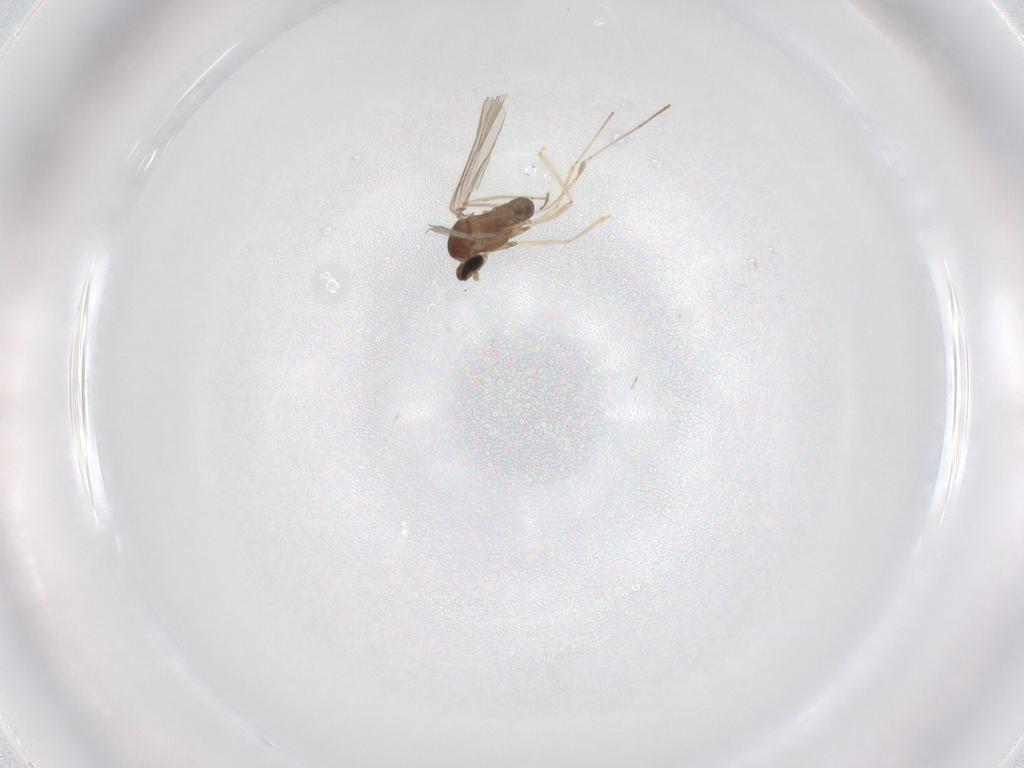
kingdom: Animalia
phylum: Arthropoda
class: Insecta
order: Diptera
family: Cecidomyiidae
